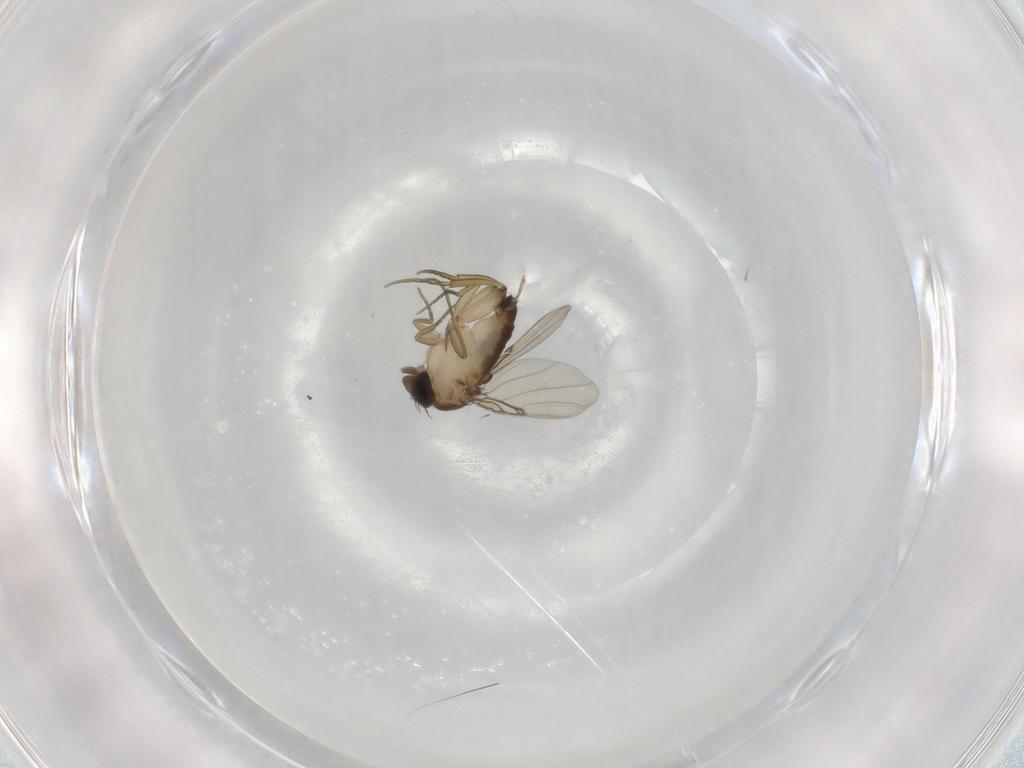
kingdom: Animalia
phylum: Arthropoda
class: Insecta
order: Diptera
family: Phoridae
